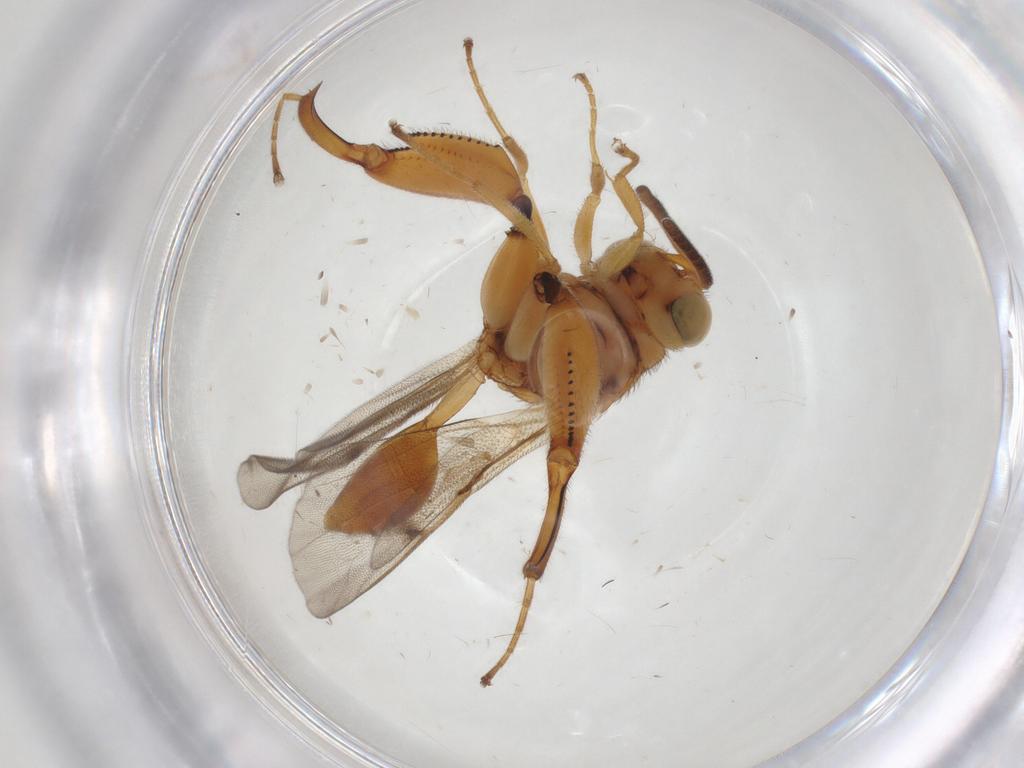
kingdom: Animalia
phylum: Arthropoda
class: Insecta
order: Hymenoptera
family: Chalcididae
